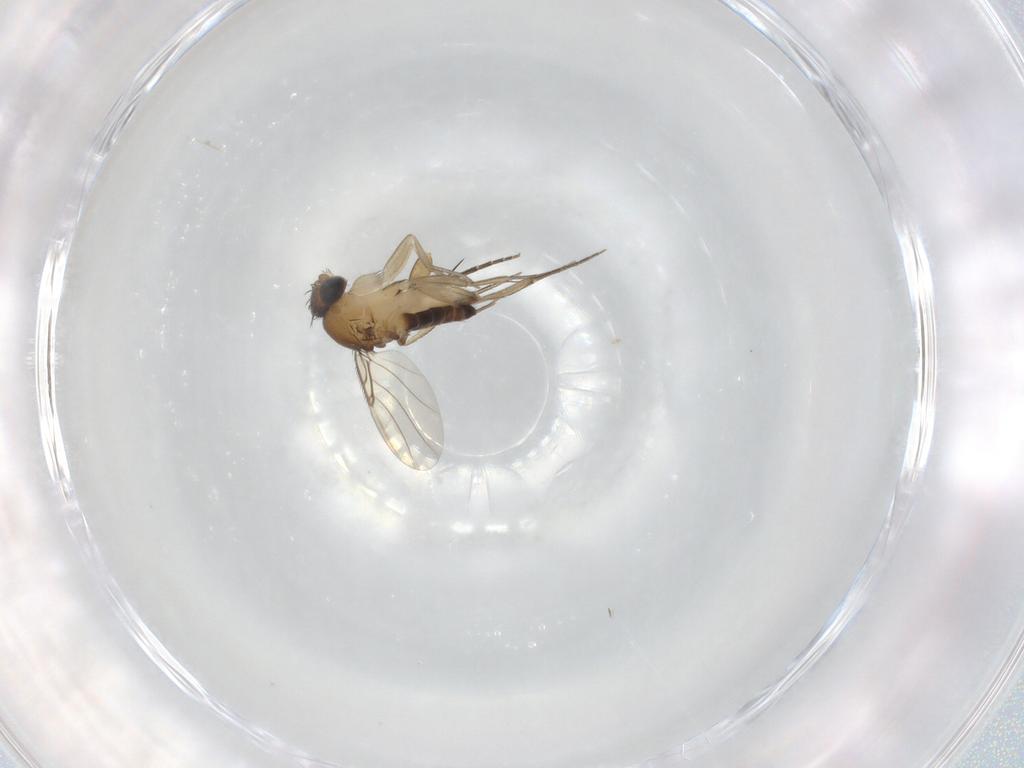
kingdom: Animalia
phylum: Arthropoda
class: Insecta
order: Diptera
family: Phoridae
